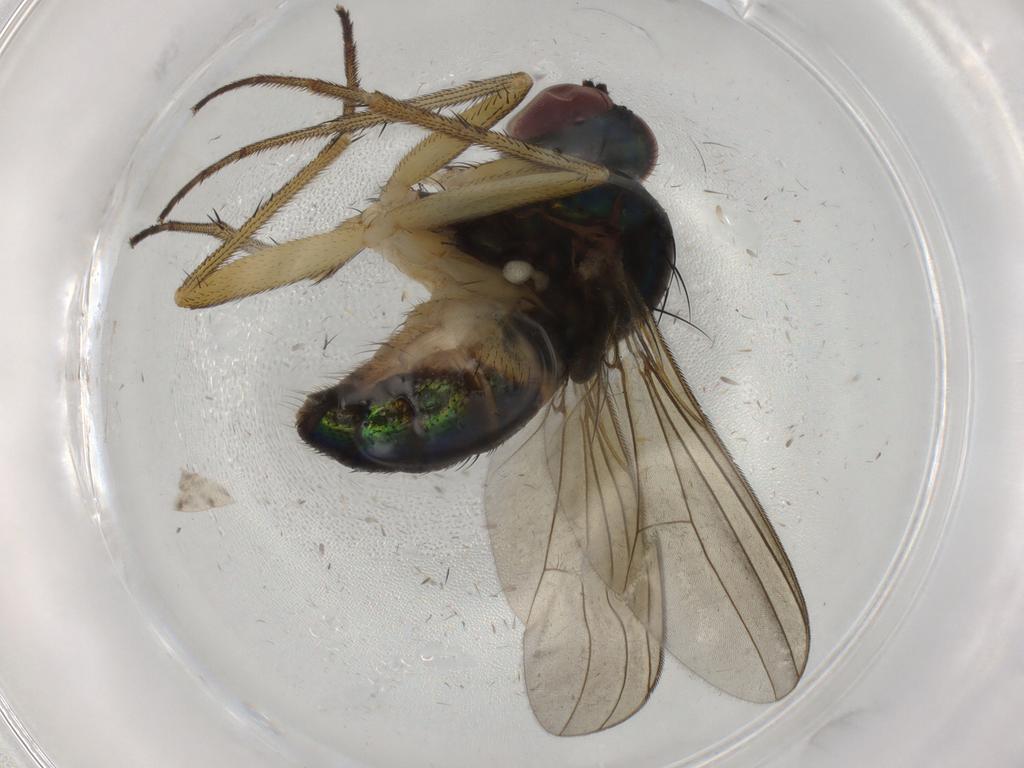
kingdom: Animalia
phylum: Arthropoda
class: Insecta
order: Diptera
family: Dolichopodidae
